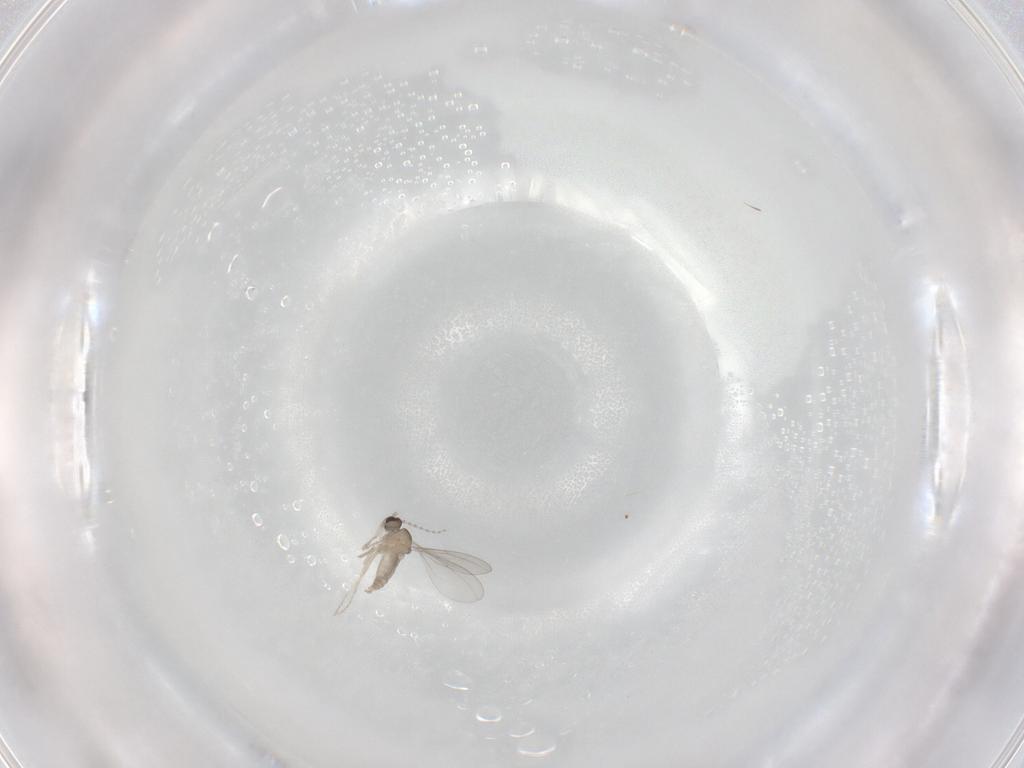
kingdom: Animalia
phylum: Arthropoda
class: Insecta
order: Diptera
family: Cecidomyiidae
